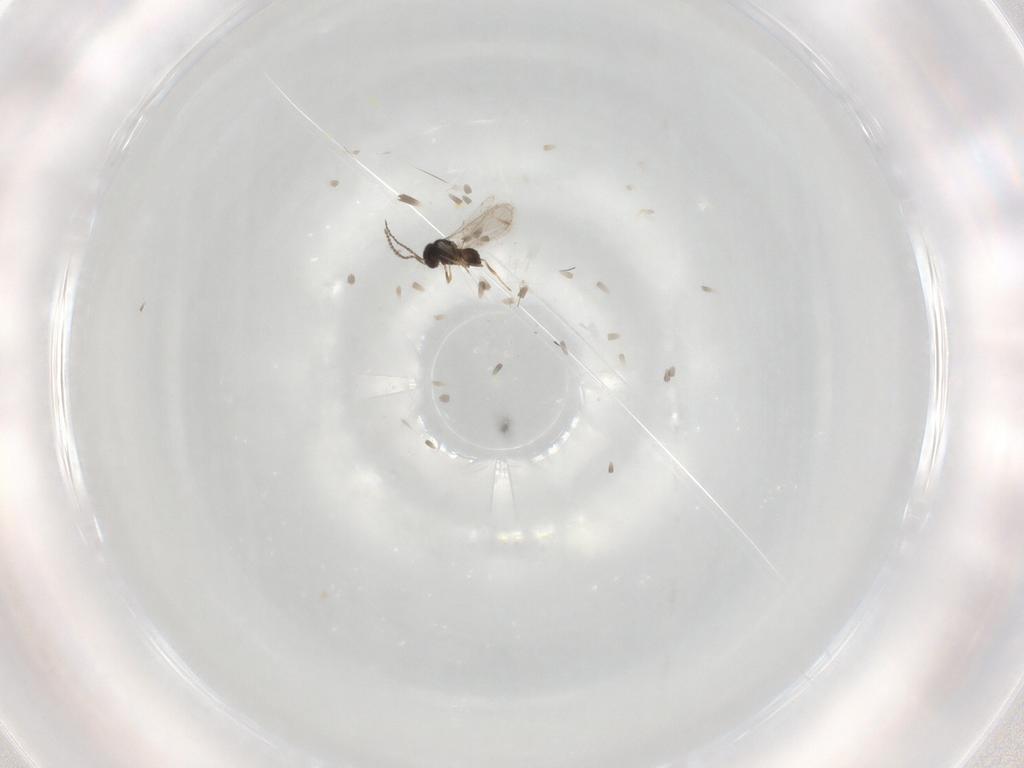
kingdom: Animalia
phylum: Arthropoda
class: Insecta
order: Hymenoptera
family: Scelionidae
